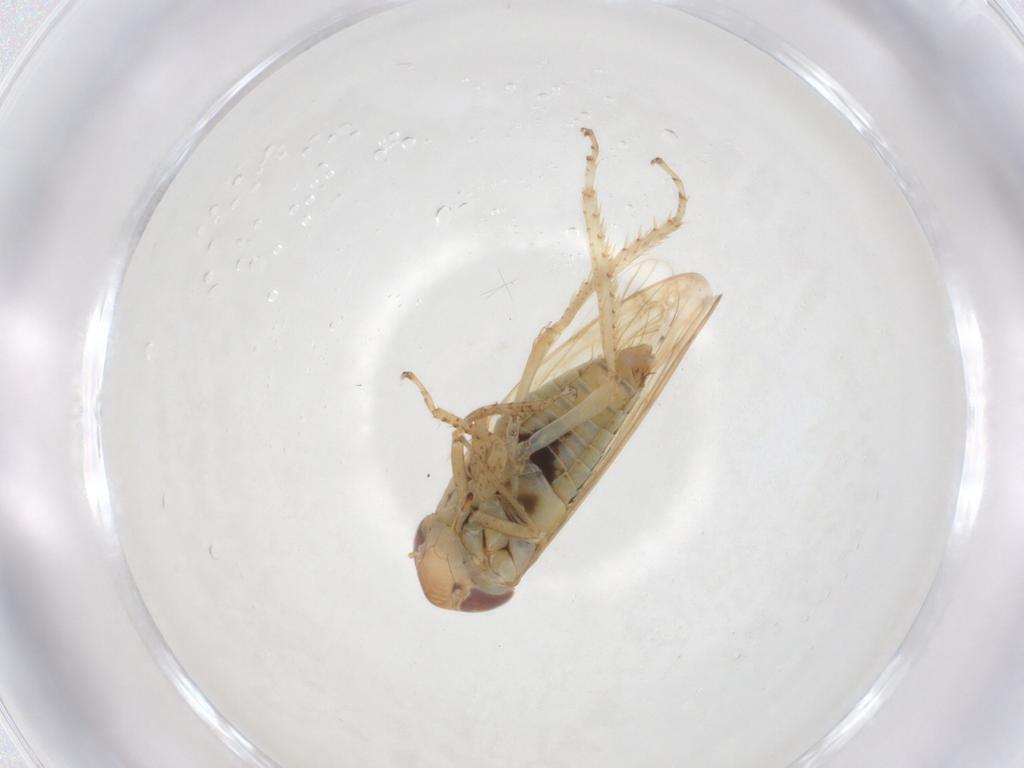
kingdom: Animalia
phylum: Arthropoda
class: Insecta
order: Hemiptera
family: Cicadellidae
